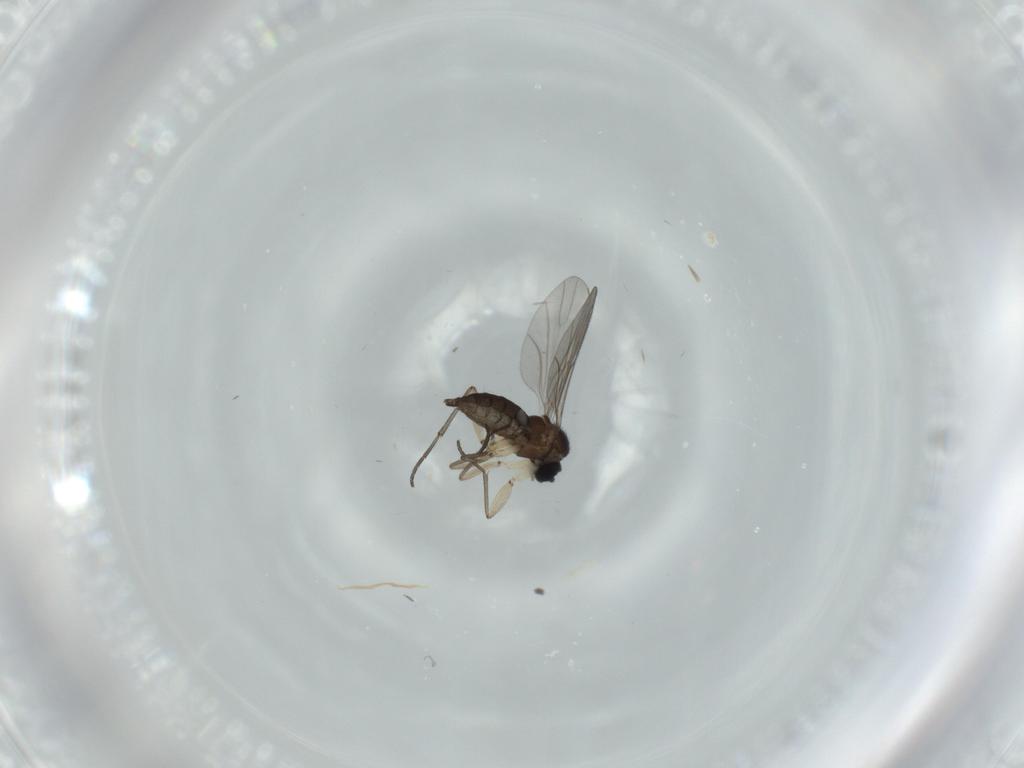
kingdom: Animalia
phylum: Arthropoda
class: Insecta
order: Diptera
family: Sciaridae
